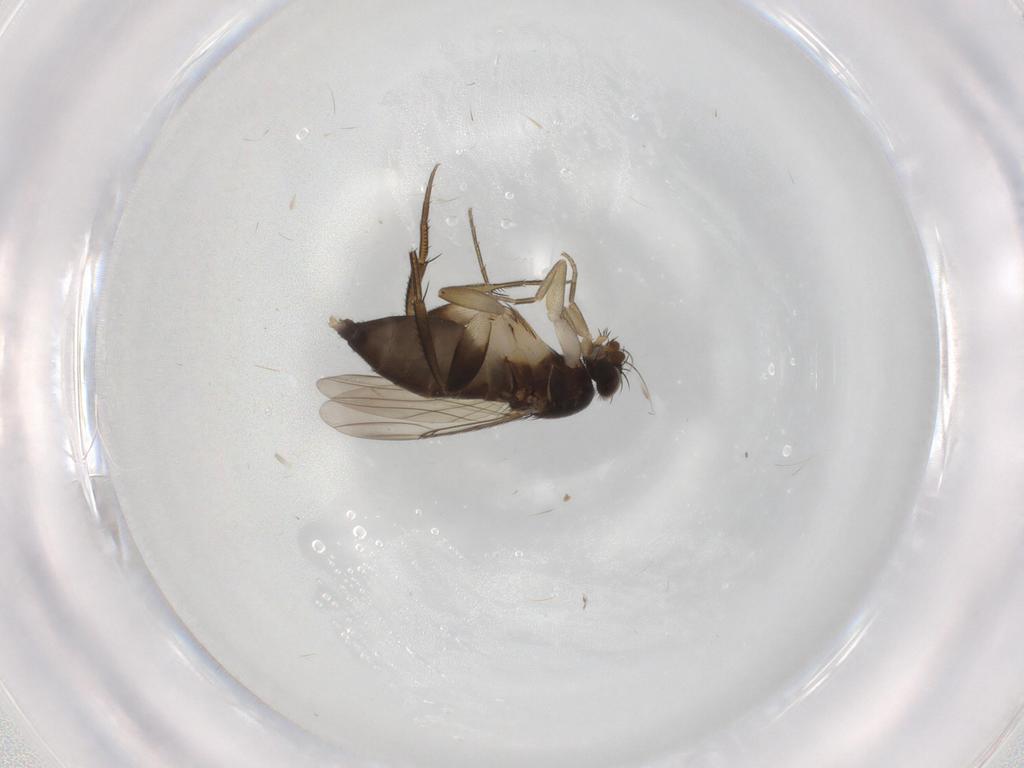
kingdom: Animalia
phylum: Arthropoda
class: Insecta
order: Diptera
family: Phoridae
